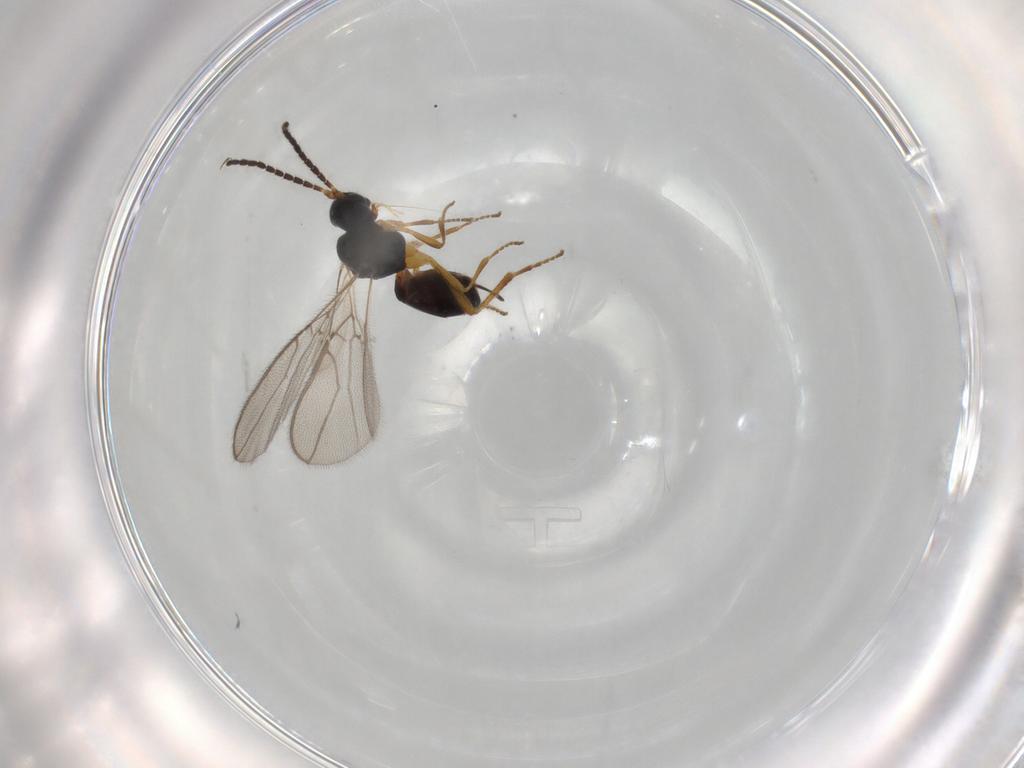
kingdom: Animalia
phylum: Arthropoda
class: Insecta
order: Hymenoptera
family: Braconidae
